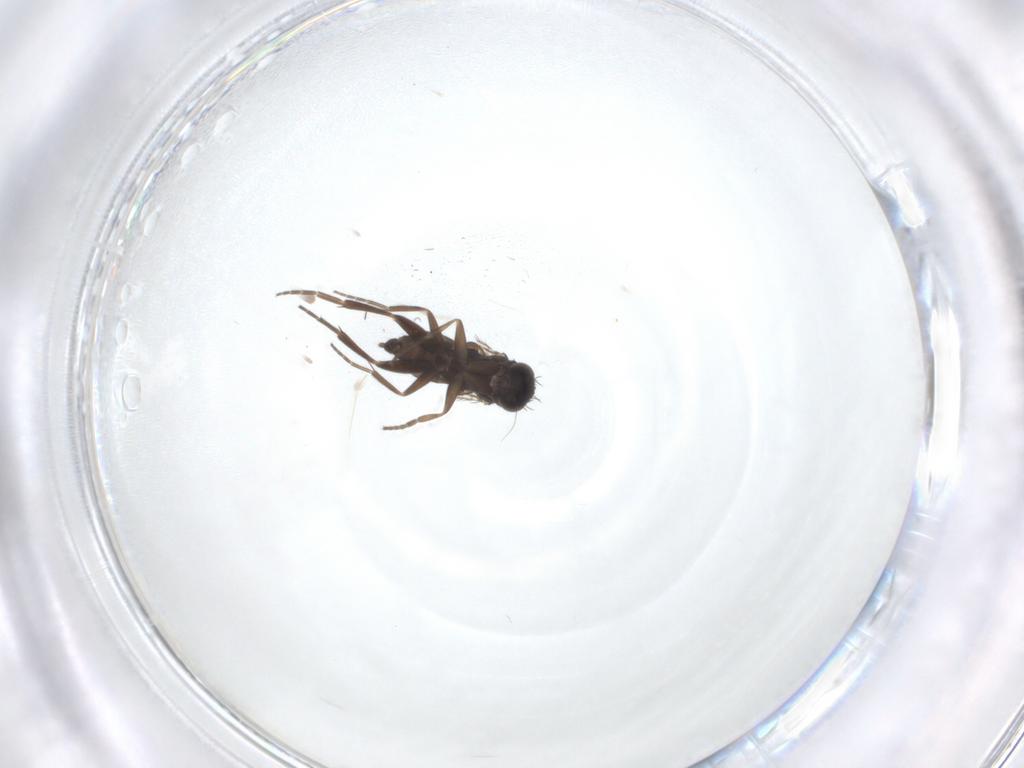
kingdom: Animalia
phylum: Arthropoda
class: Insecta
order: Diptera
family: Phoridae
